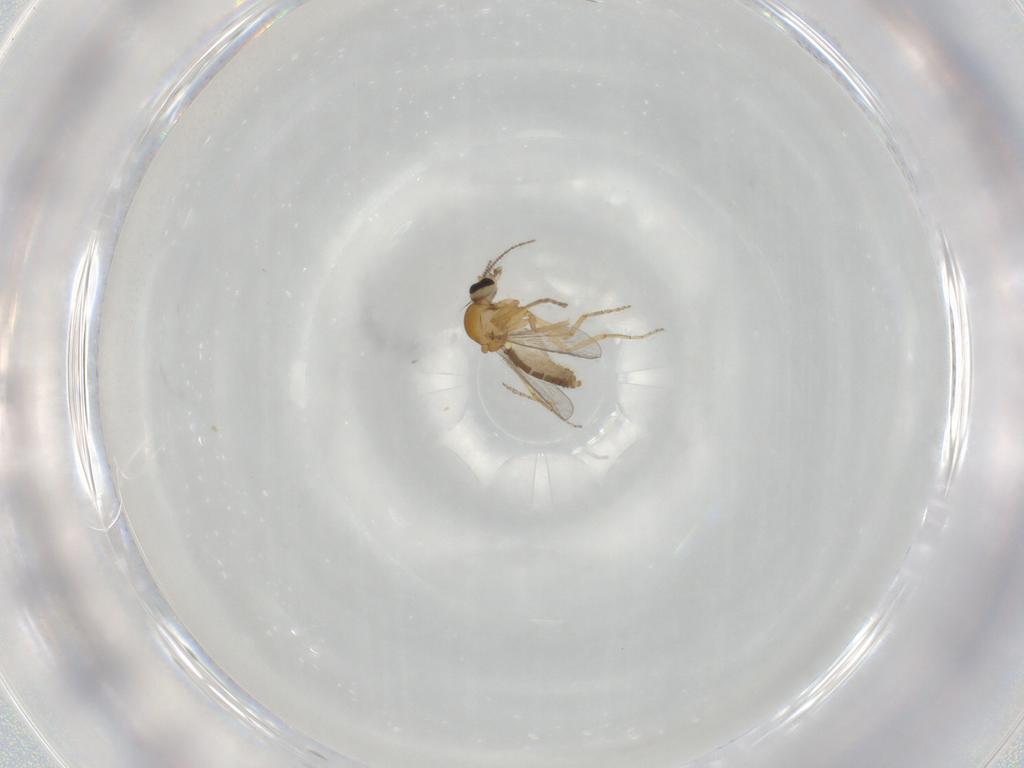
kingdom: Animalia
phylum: Arthropoda
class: Insecta
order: Diptera
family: Ceratopogonidae
